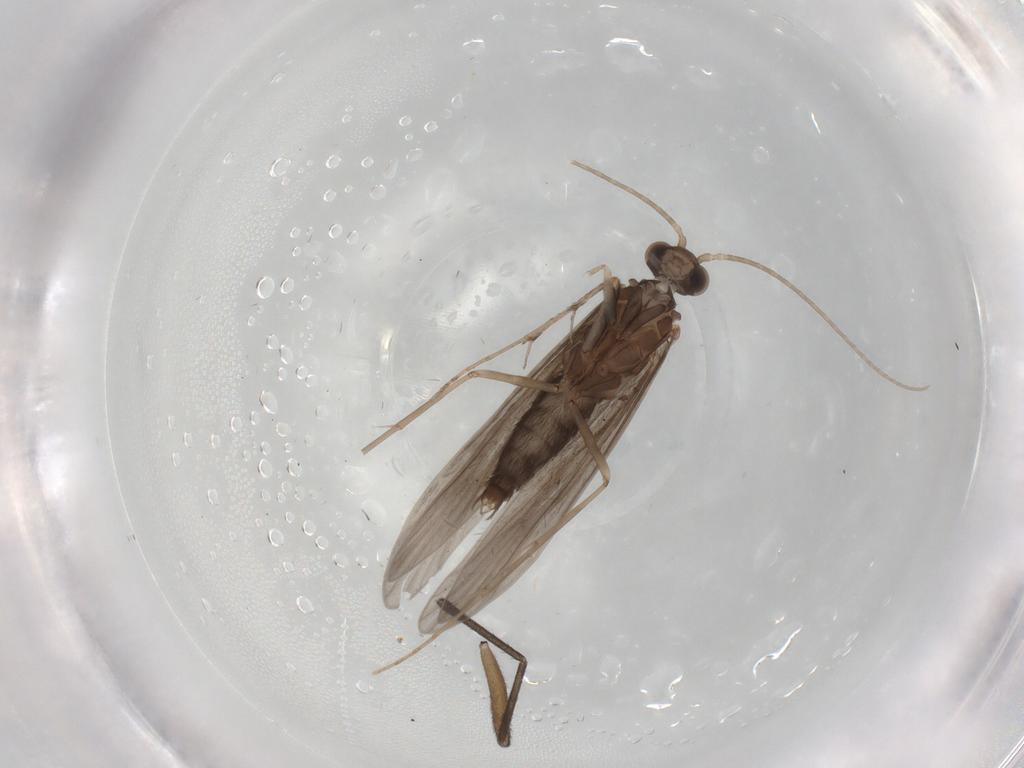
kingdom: Animalia
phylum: Arthropoda
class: Insecta
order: Trichoptera
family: Xiphocentronidae
